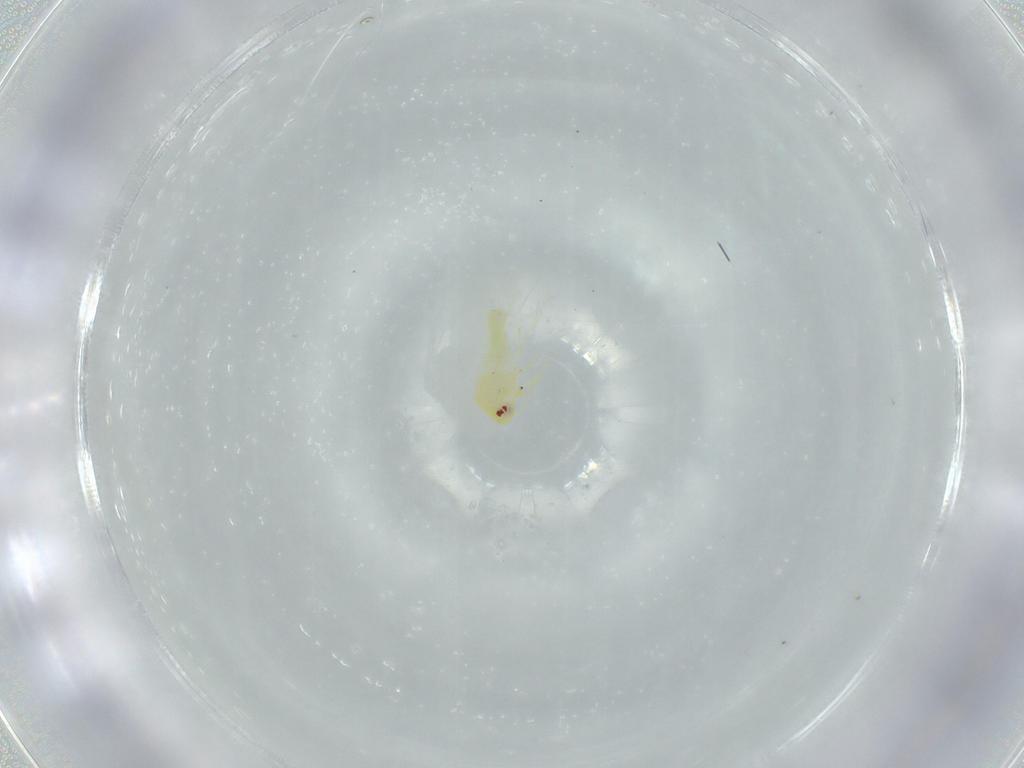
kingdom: Animalia
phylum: Arthropoda
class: Insecta
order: Hemiptera
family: Aleyrodidae
